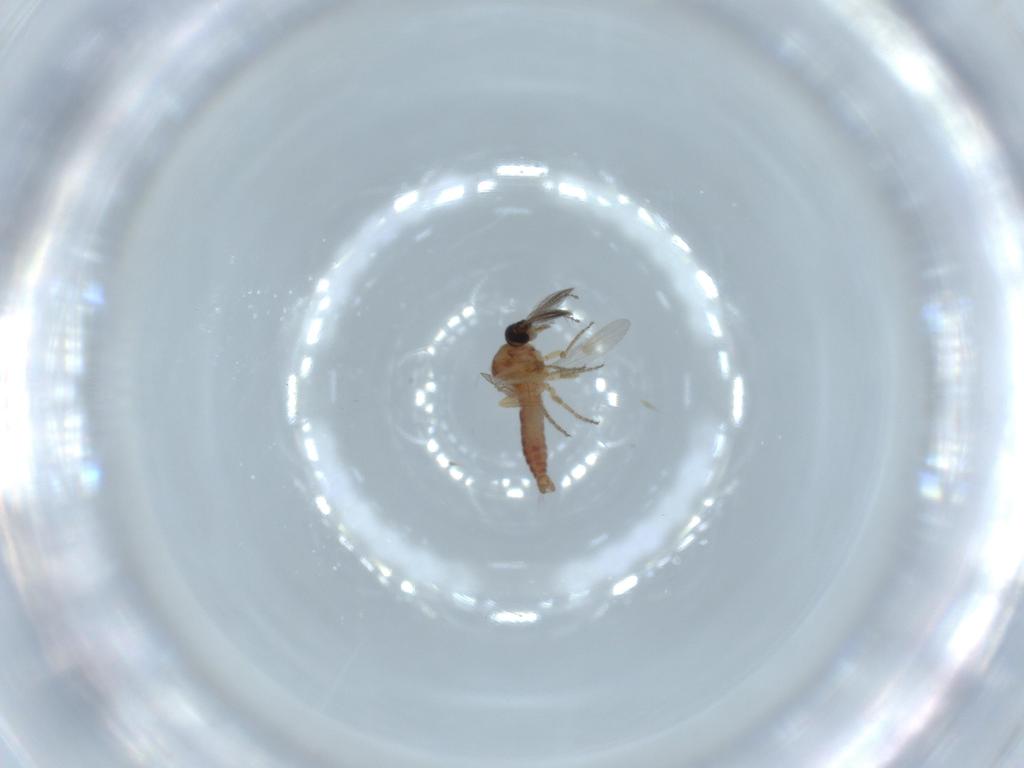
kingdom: Animalia
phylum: Arthropoda
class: Insecta
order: Diptera
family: Ceratopogonidae
